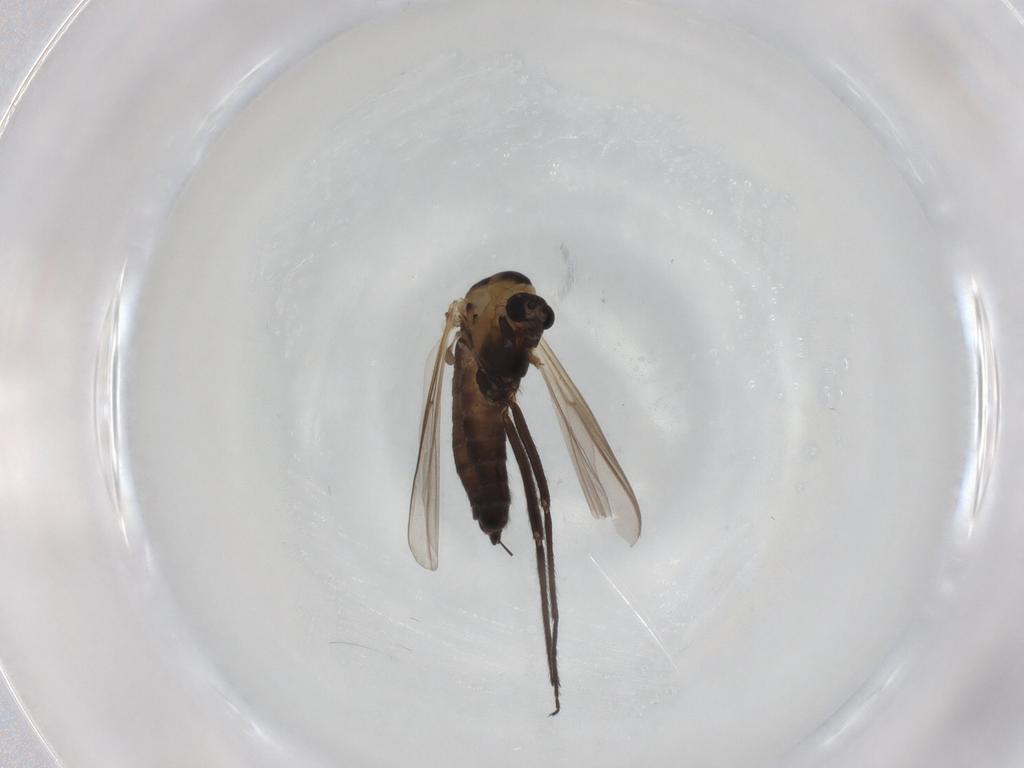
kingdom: Animalia
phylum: Arthropoda
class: Insecta
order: Diptera
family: Chironomidae
